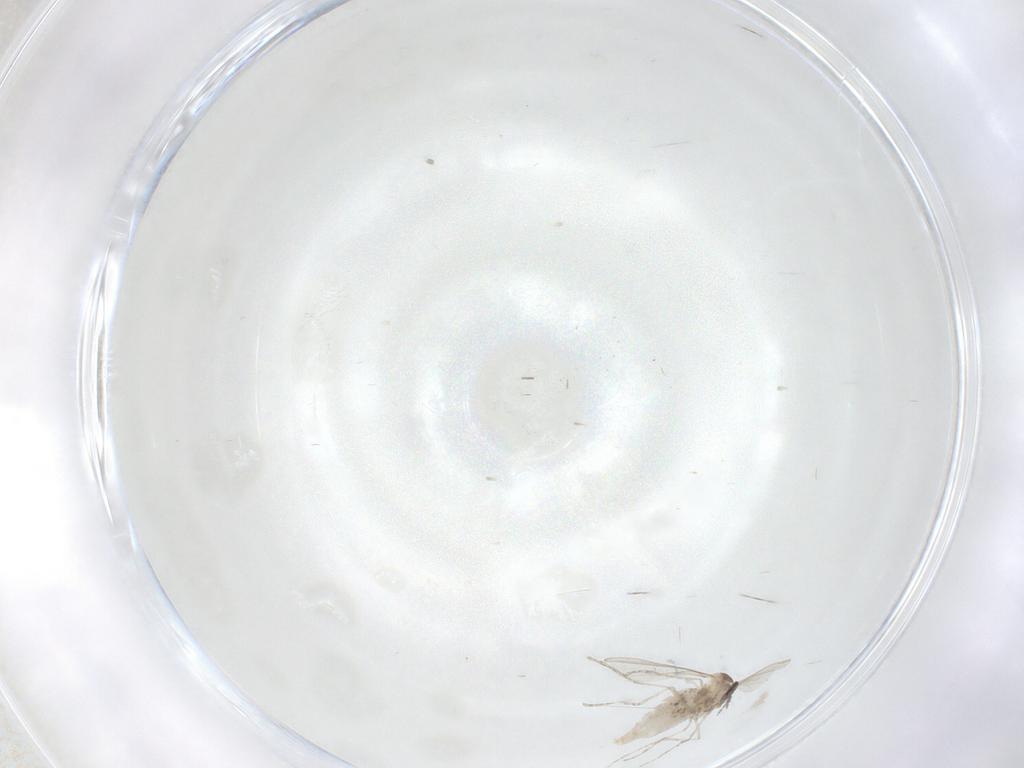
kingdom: Animalia
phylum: Arthropoda
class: Insecta
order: Diptera
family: Cecidomyiidae
